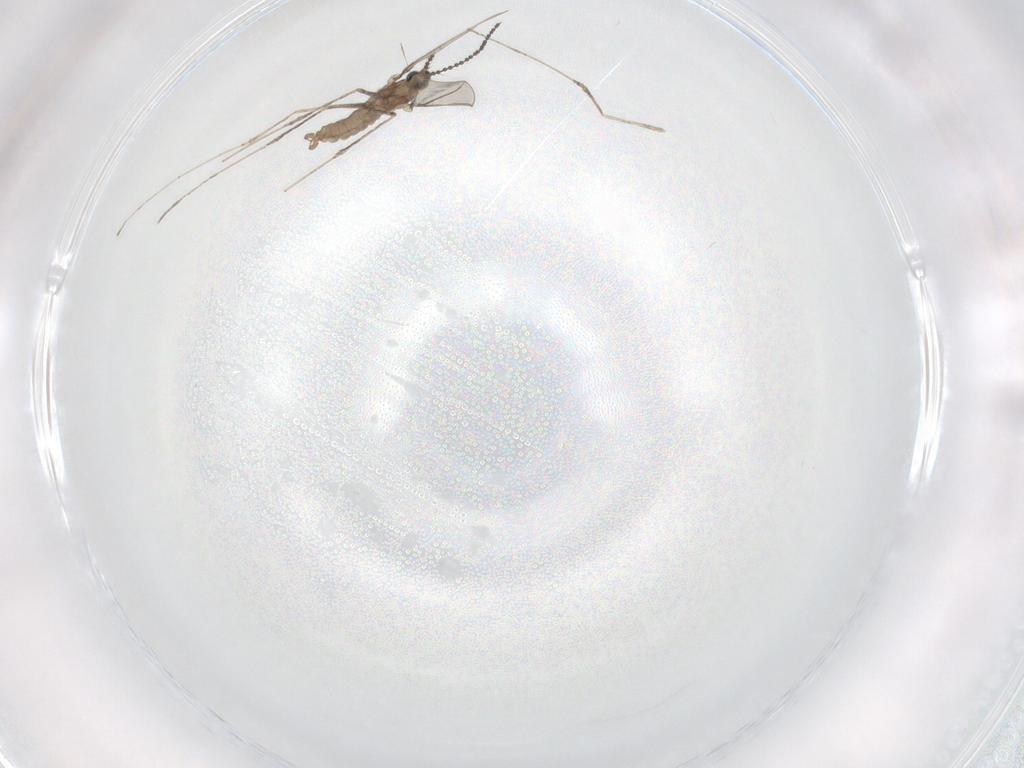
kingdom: Animalia
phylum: Arthropoda
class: Insecta
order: Diptera
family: Cecidomyiidae
